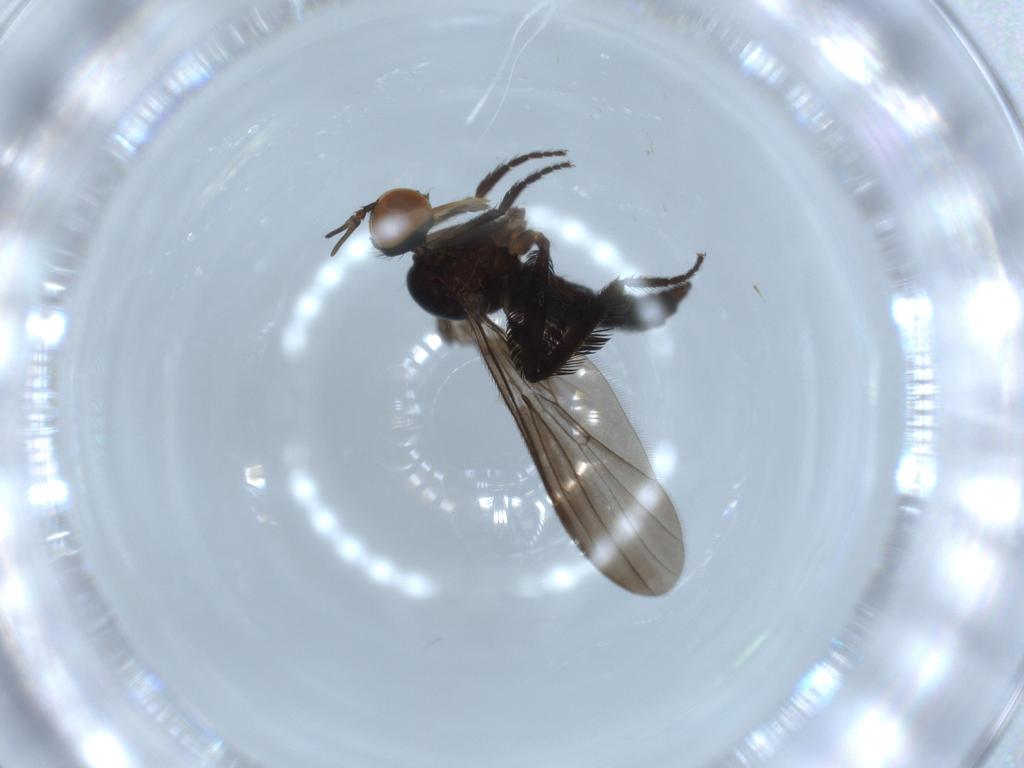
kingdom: Animalia
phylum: Arthropoda
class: Insecta
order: Diptera
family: Empididae
